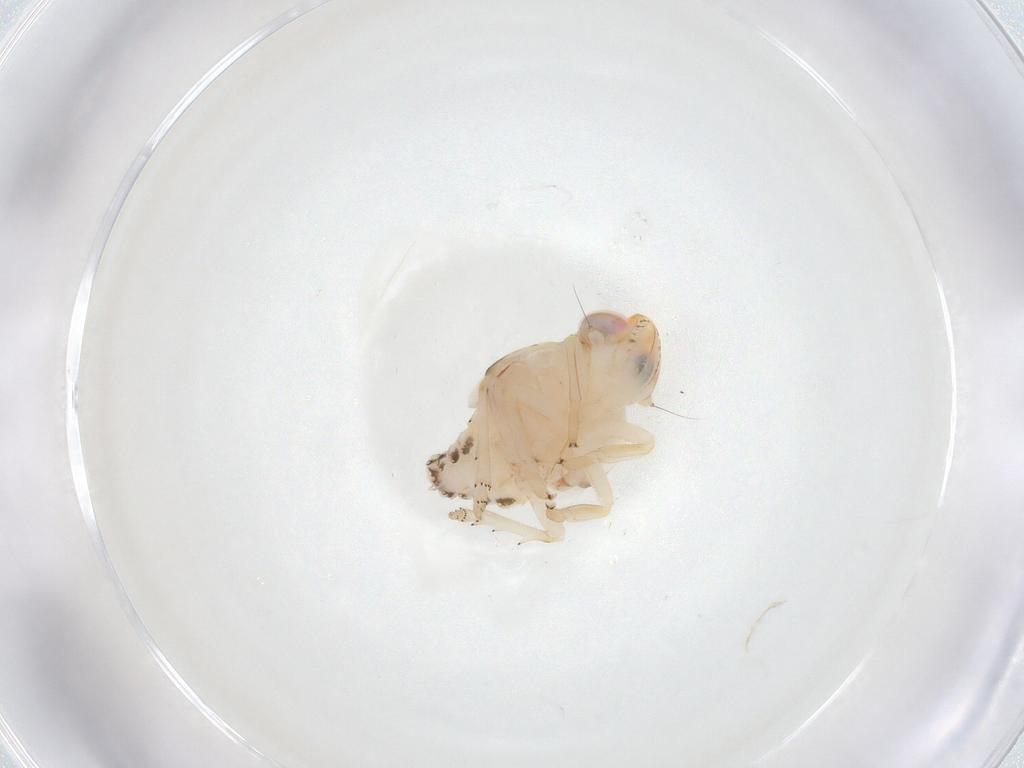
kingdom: Animalia
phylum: Arthropoda
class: Insecta
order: Hemiptera
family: Nogodinidae
